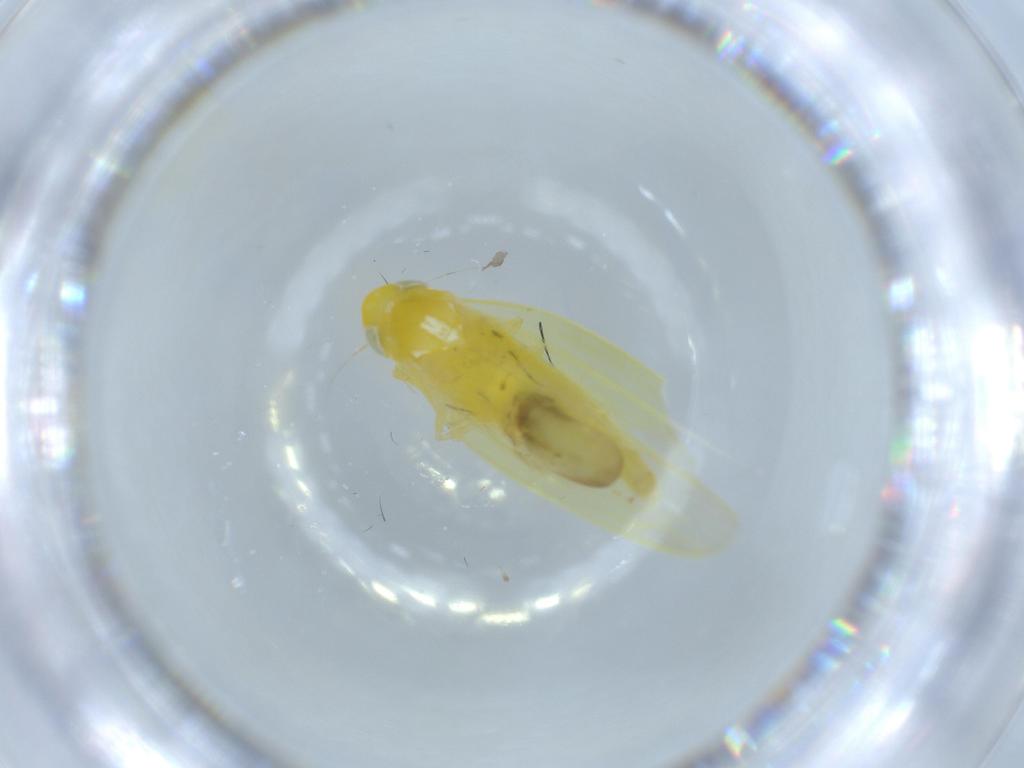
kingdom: Animalia
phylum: Arthropoda
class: Insecta
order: Hemiptera
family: Cicadellidae
